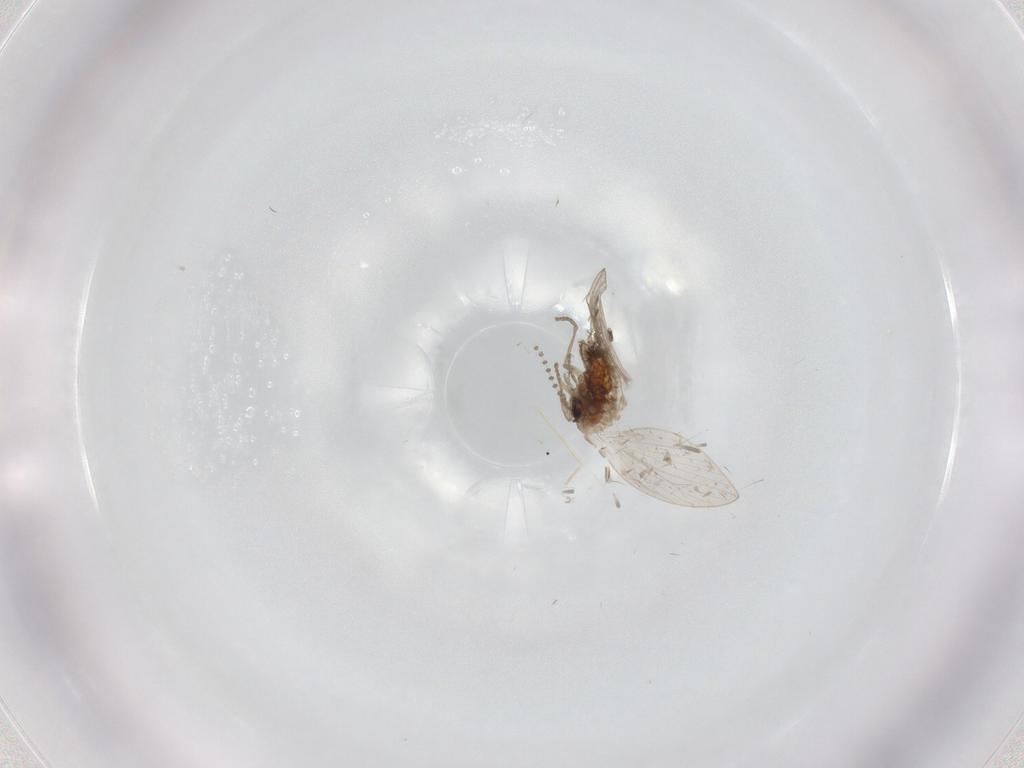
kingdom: Animalia
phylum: Arthropoda
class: Insecta
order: Diptera
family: Psychodidae
